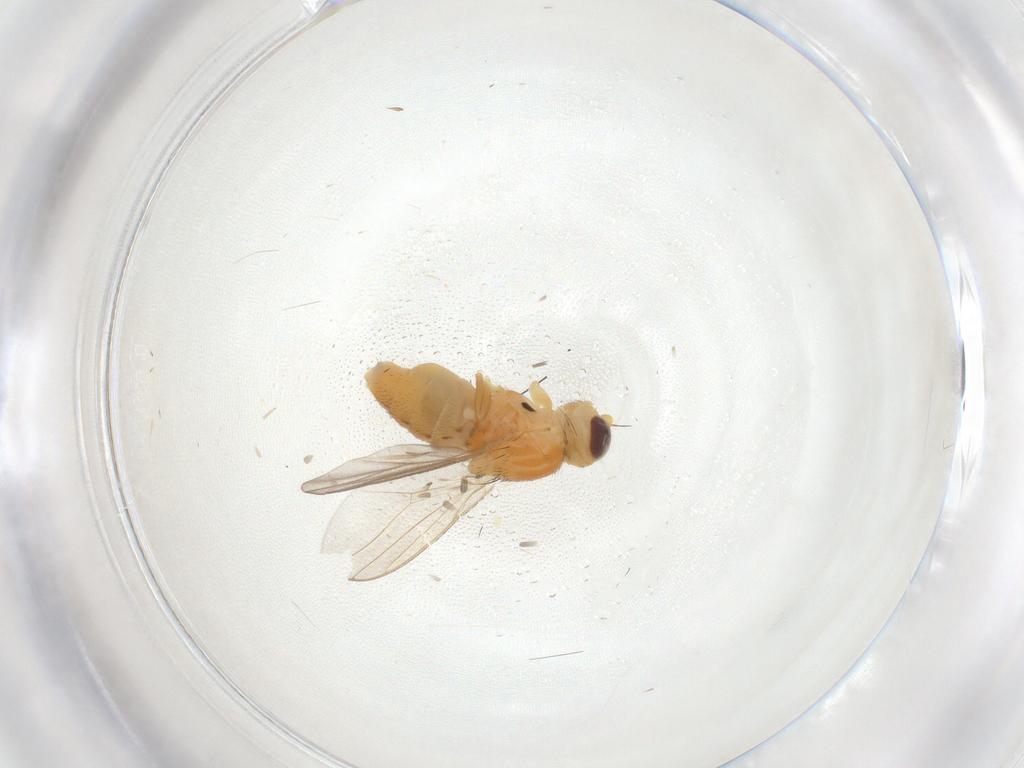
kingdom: Animalia
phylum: Arthropoda
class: Insecta
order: Diptera
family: Chloropidae
